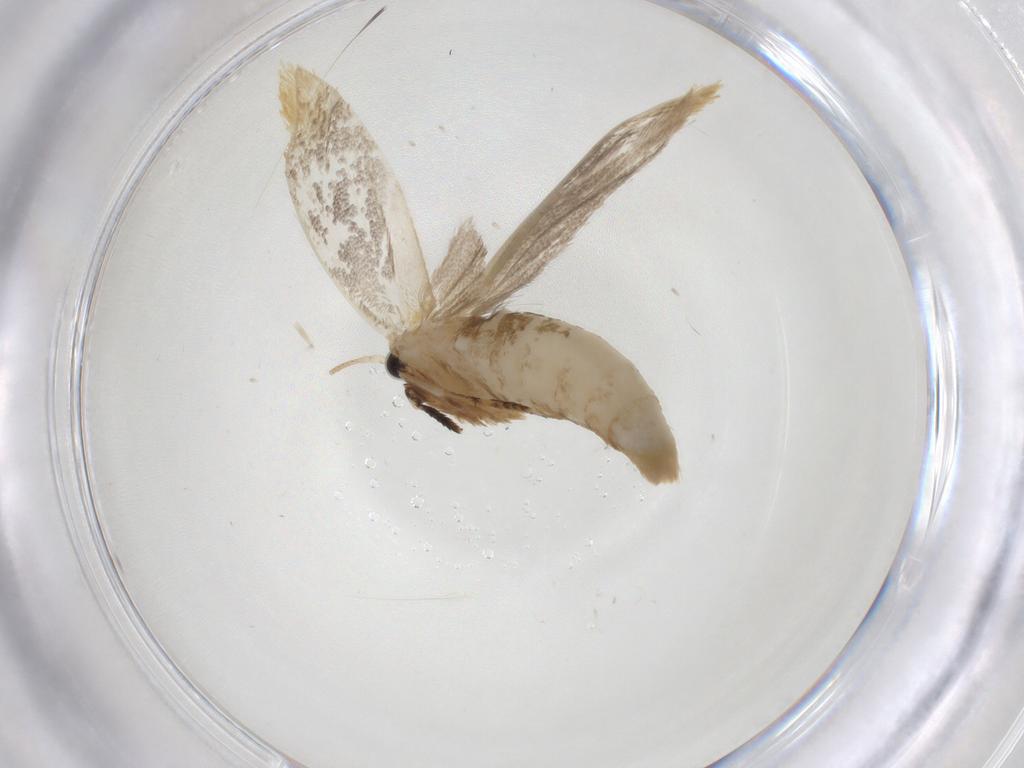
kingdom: Animalia
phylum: Arthropoda
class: Insecta
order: Lepidoptera
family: Tineidae
